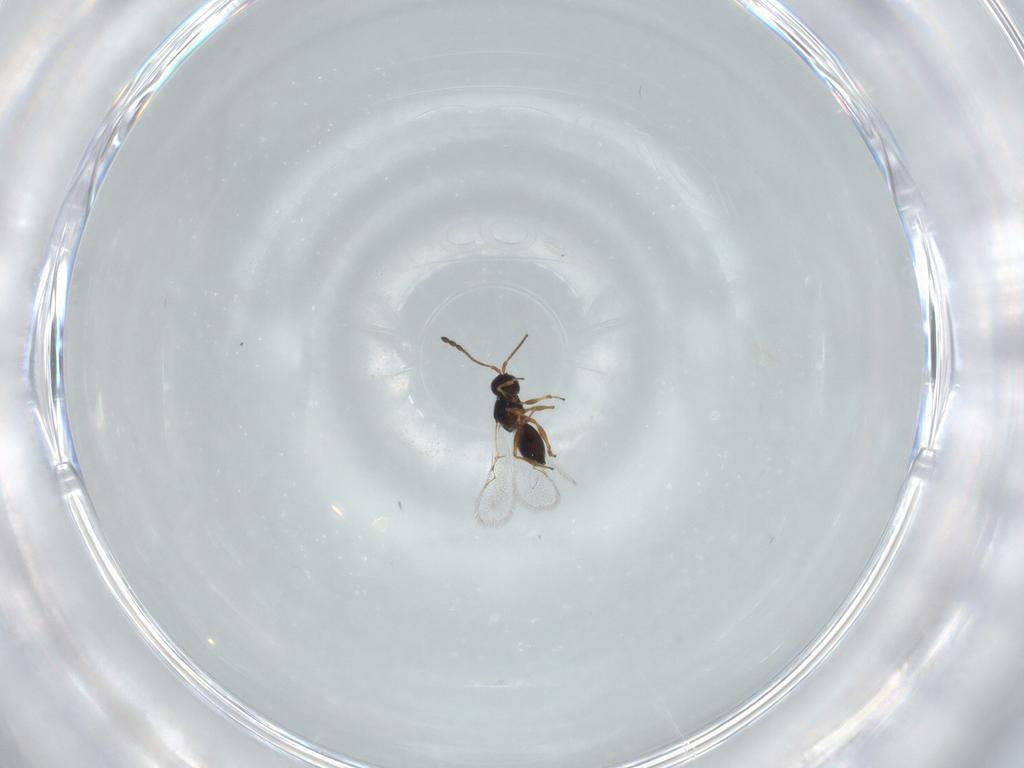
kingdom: Animalia
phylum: Arthropoda
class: Insecta
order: Hymenoptera
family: Figitidae
